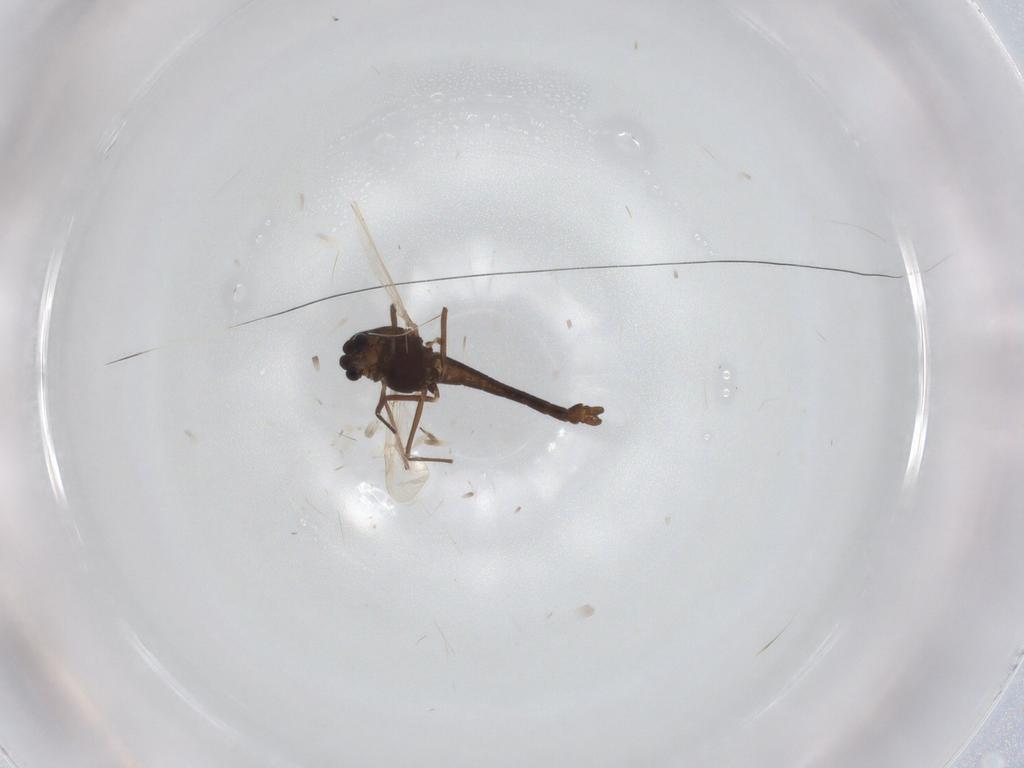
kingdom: Animalia
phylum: Arthropoda
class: Insecta
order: Diptera
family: Chironomidae
